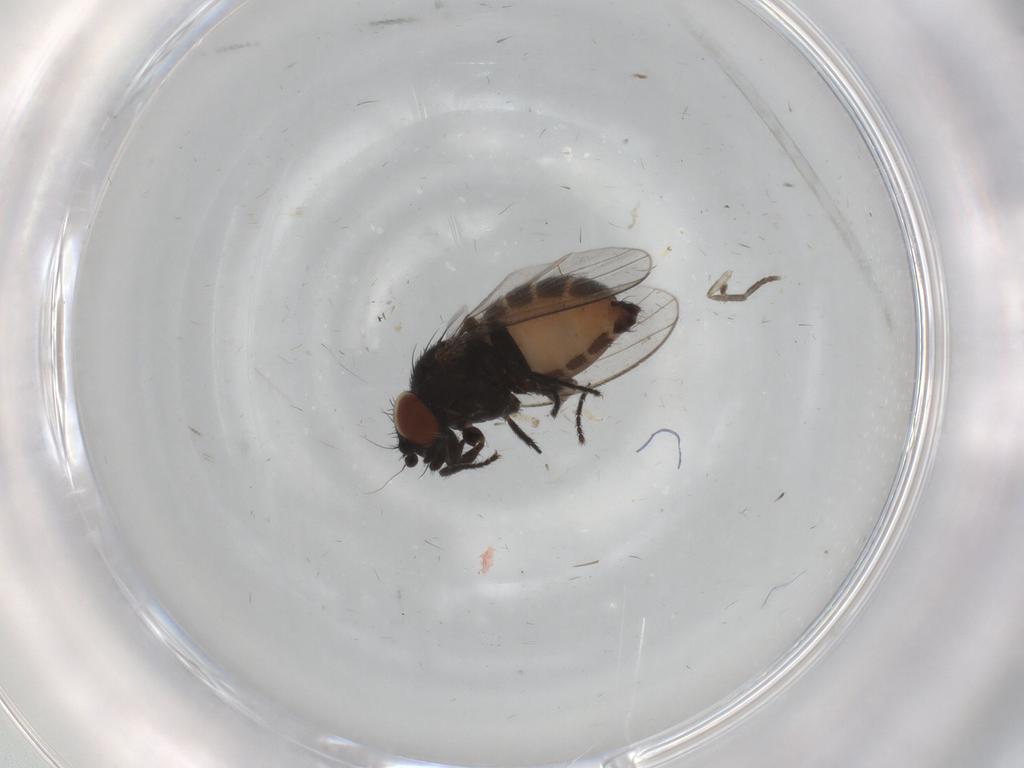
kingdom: Animalia
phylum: Arthropoda
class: Insecta
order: Diptera
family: Milichiidae
